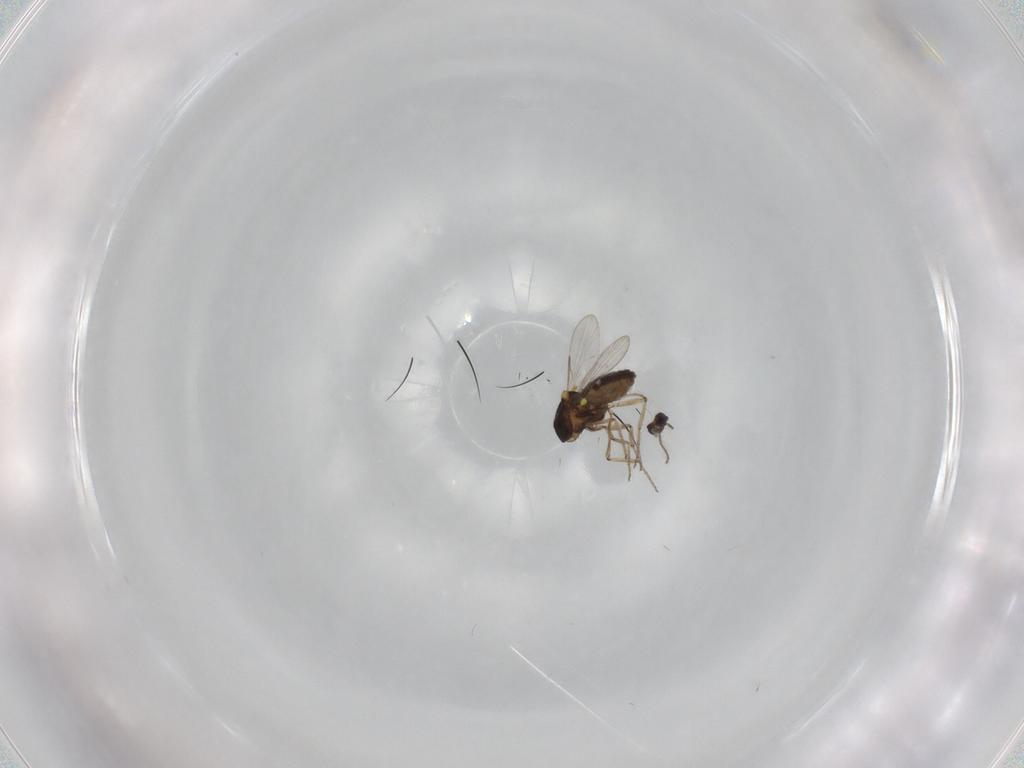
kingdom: Animalia
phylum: Arthropoda
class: Insecta
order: Diptera
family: Ceratopogonidae
